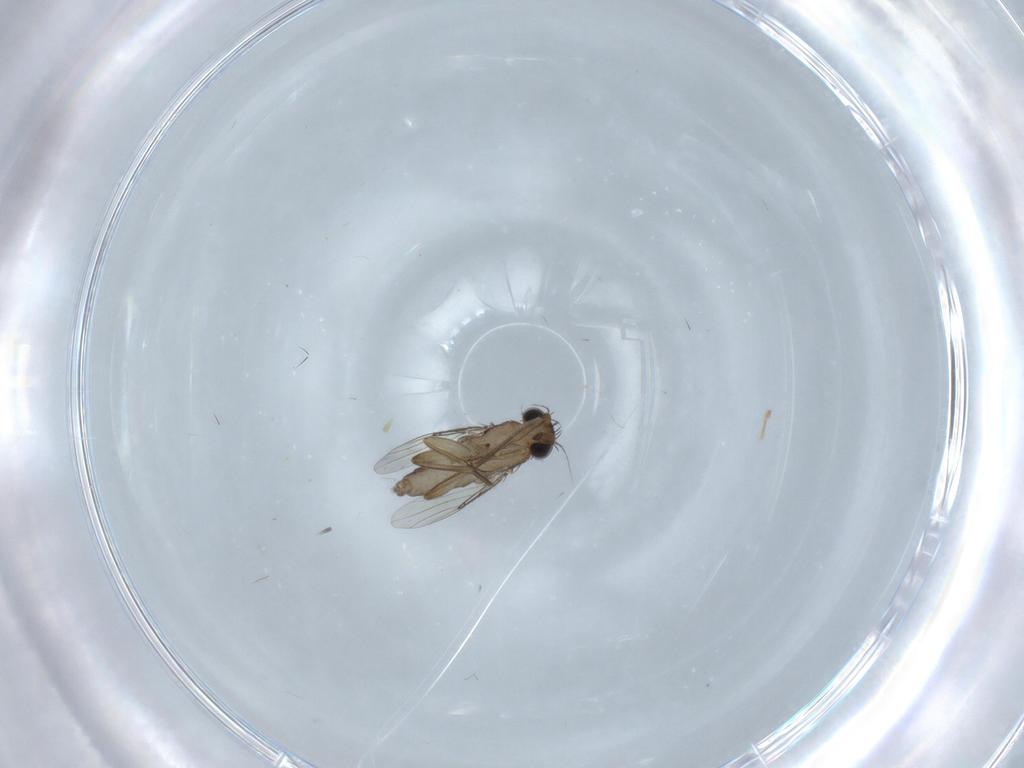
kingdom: Animalia
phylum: Arthropoda
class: Insecta
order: Diptera
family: Phoridae
